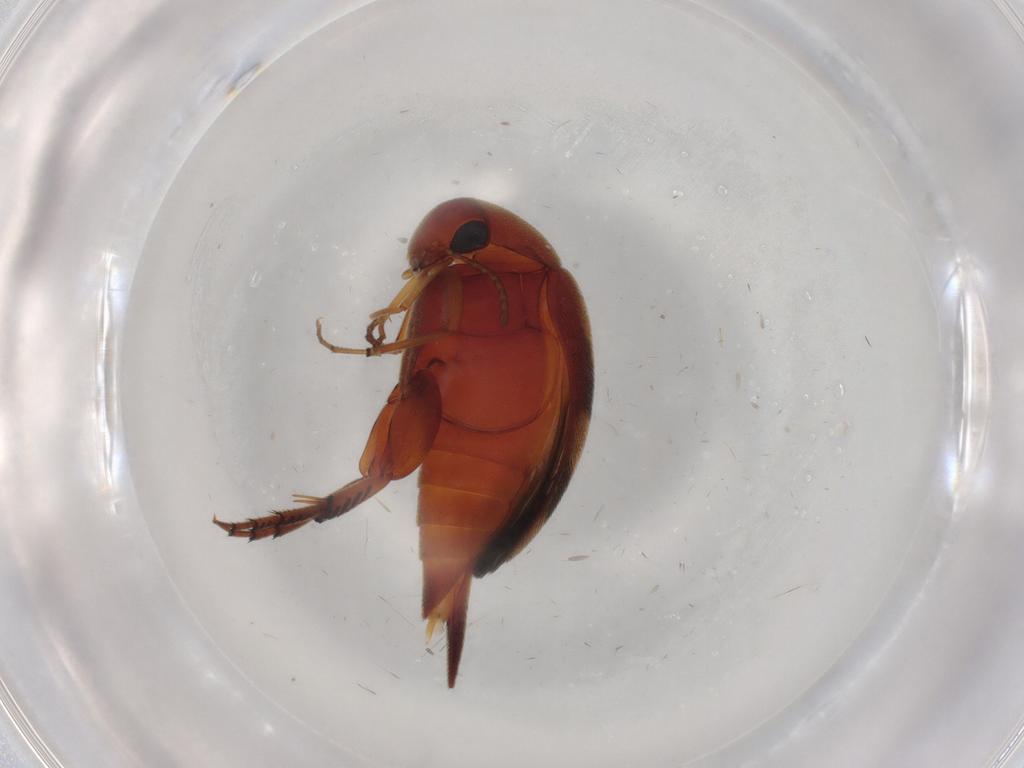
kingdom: Animalia
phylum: Arthropoda
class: Insecta
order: Coleoptera
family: Mordellidae
